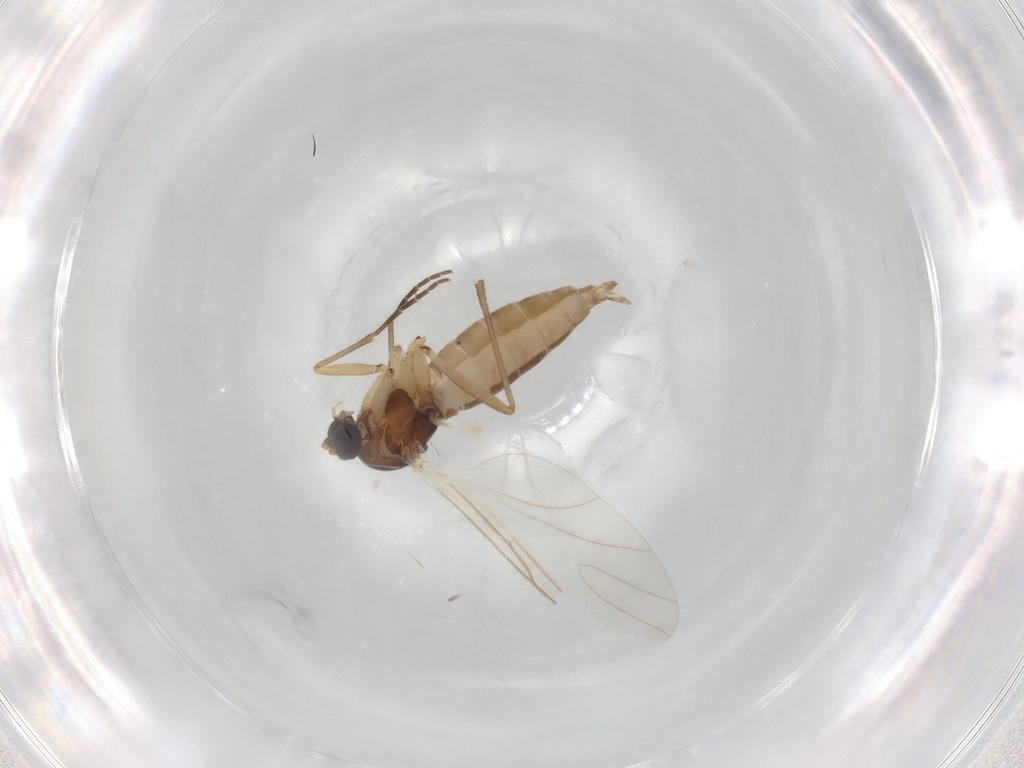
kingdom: Animalia
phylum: Arthropoda
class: Insecta
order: Diptera
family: Sciaridae
